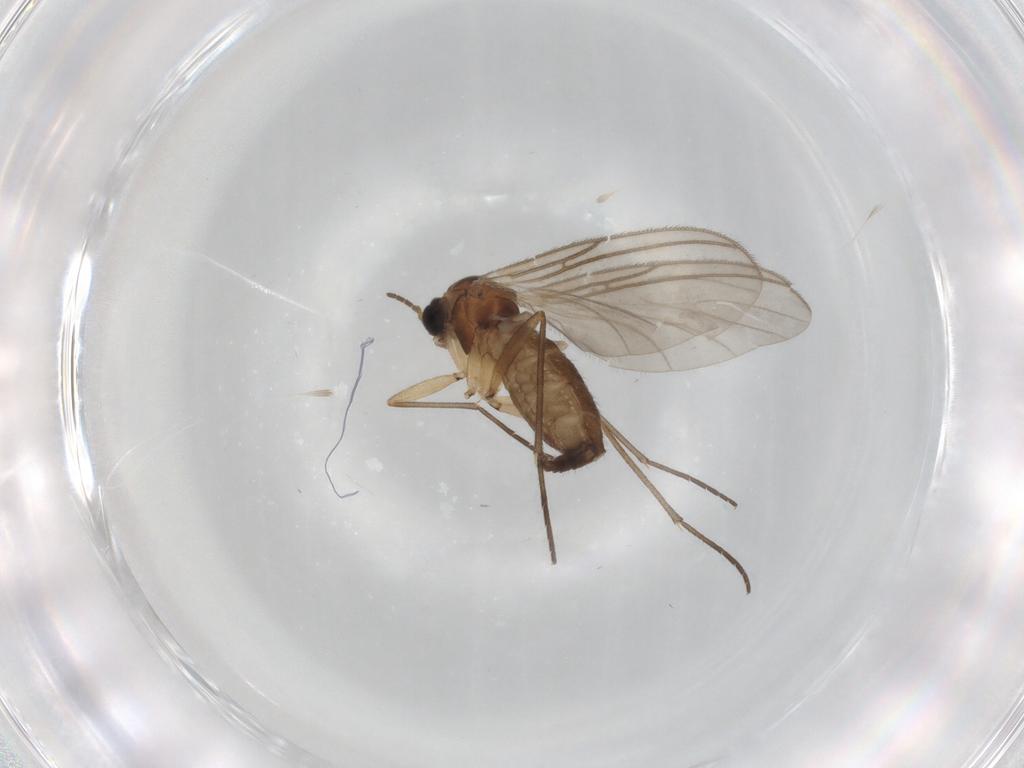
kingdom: Animalia
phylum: Arthropoda
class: Insecta
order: Diptera
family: Sciaridae
